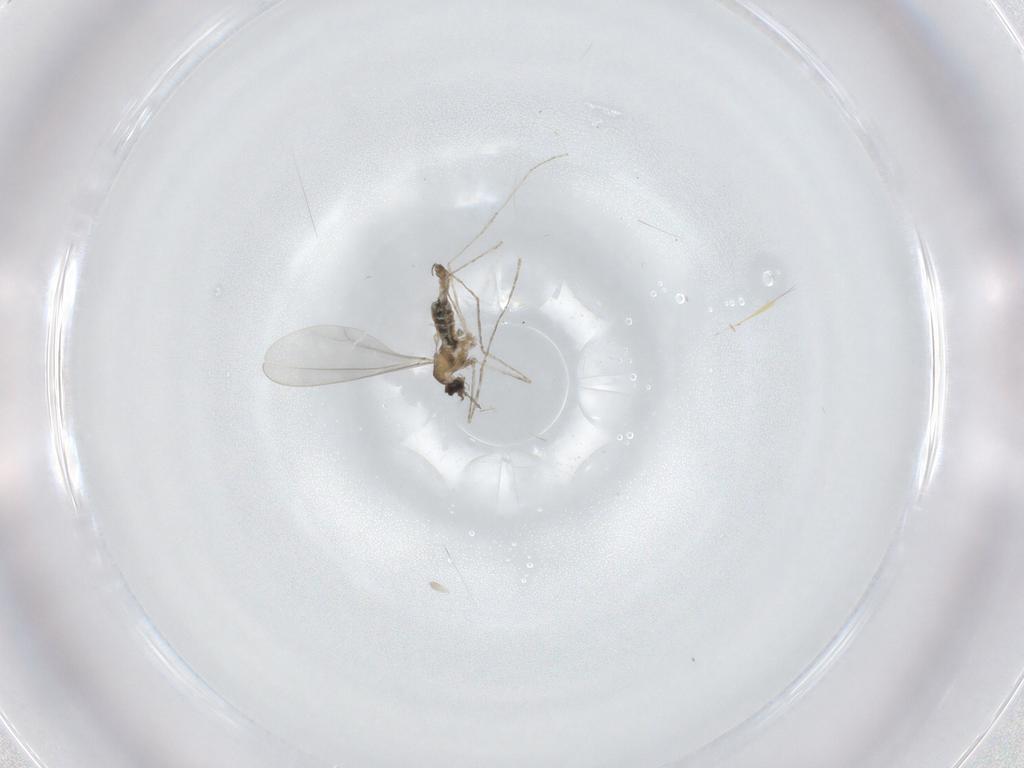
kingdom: Animalia
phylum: Arthropoda
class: Insecta
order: Diptera
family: Cecidomyiidae
